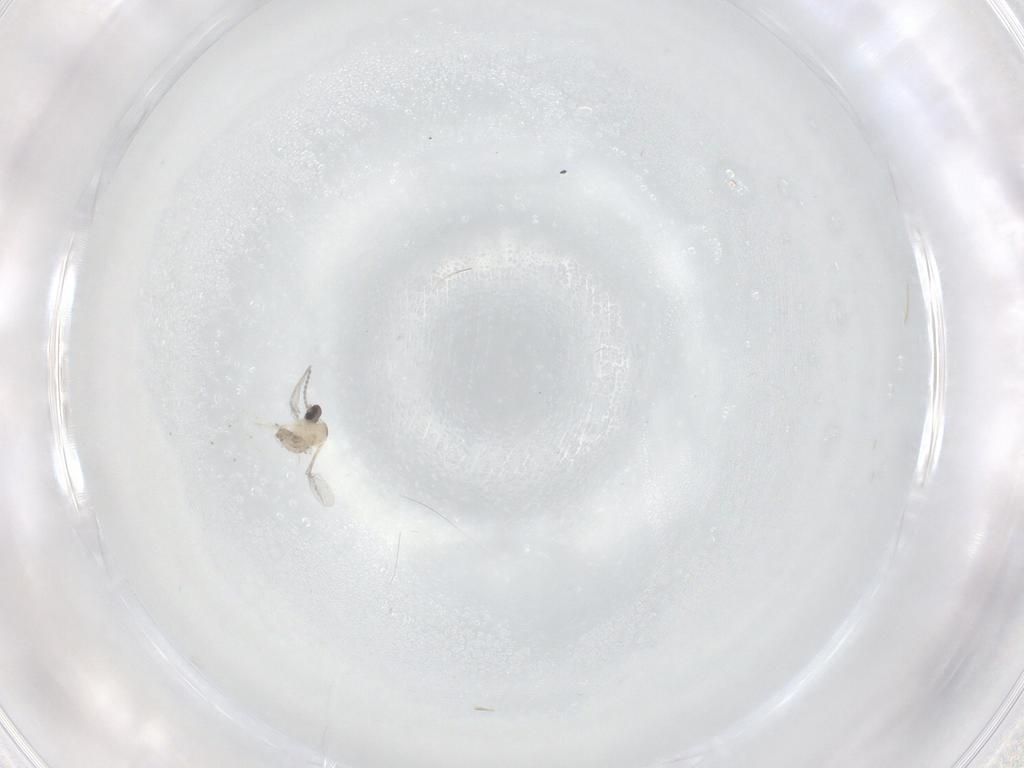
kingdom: Animalia
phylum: Arthropoda
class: Insecta
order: Diptera
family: Cecidomyiidae
